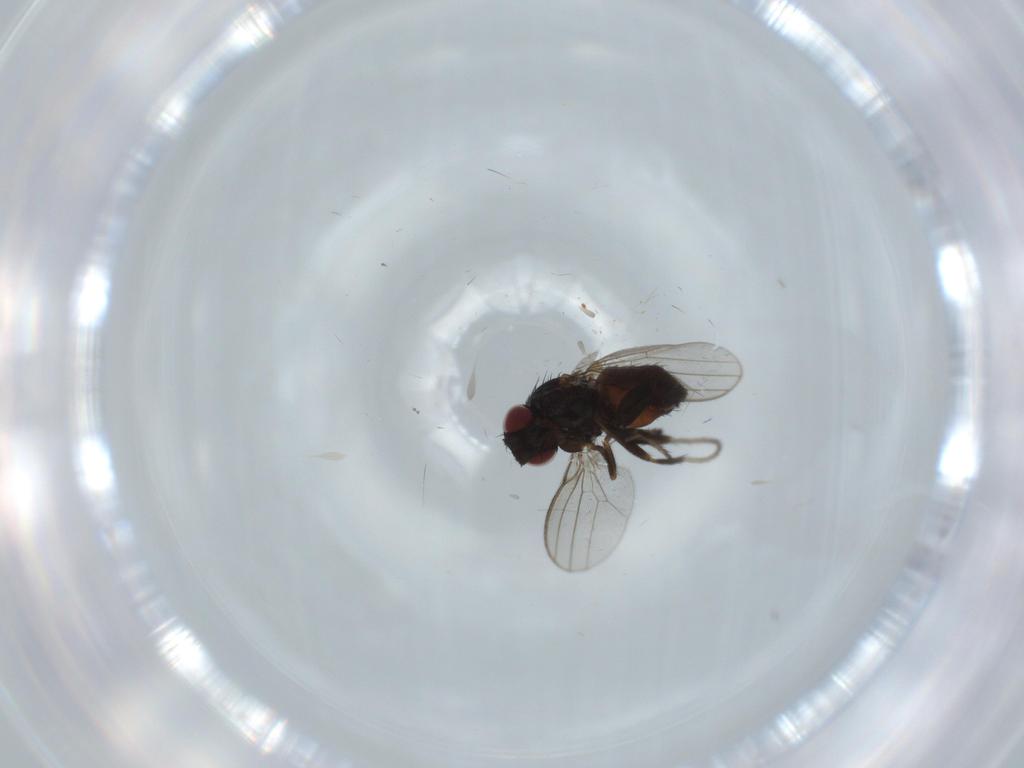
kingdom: Animalia
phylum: Arthropoda
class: Insecta
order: Diptera
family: Milichiidae
